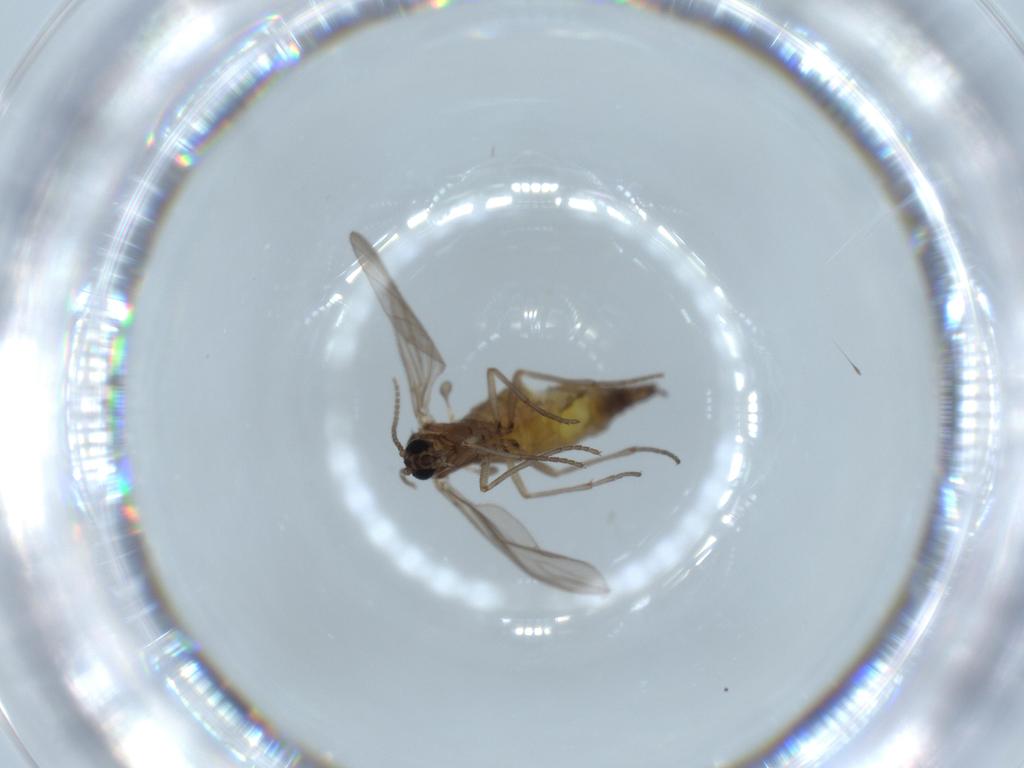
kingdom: Animalia
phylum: Arthropoda
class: Insecta
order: Diptera
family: Sciaridae
